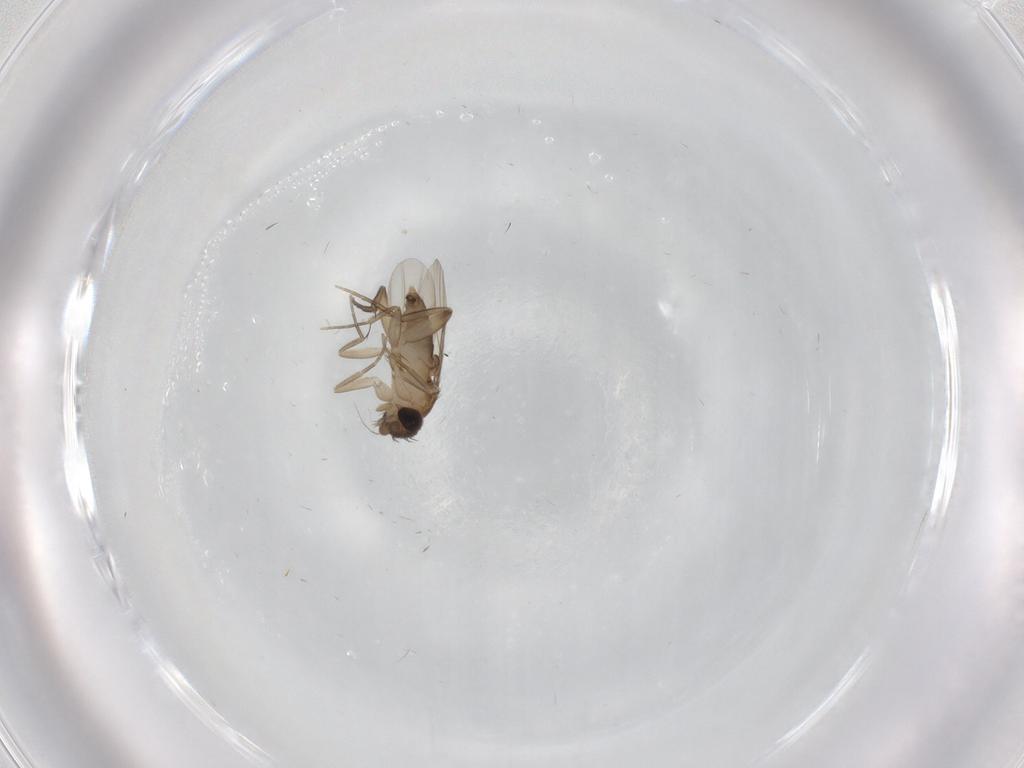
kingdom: Animalia
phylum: Arthropoda
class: Insecta
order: Diptera
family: Phoridae
